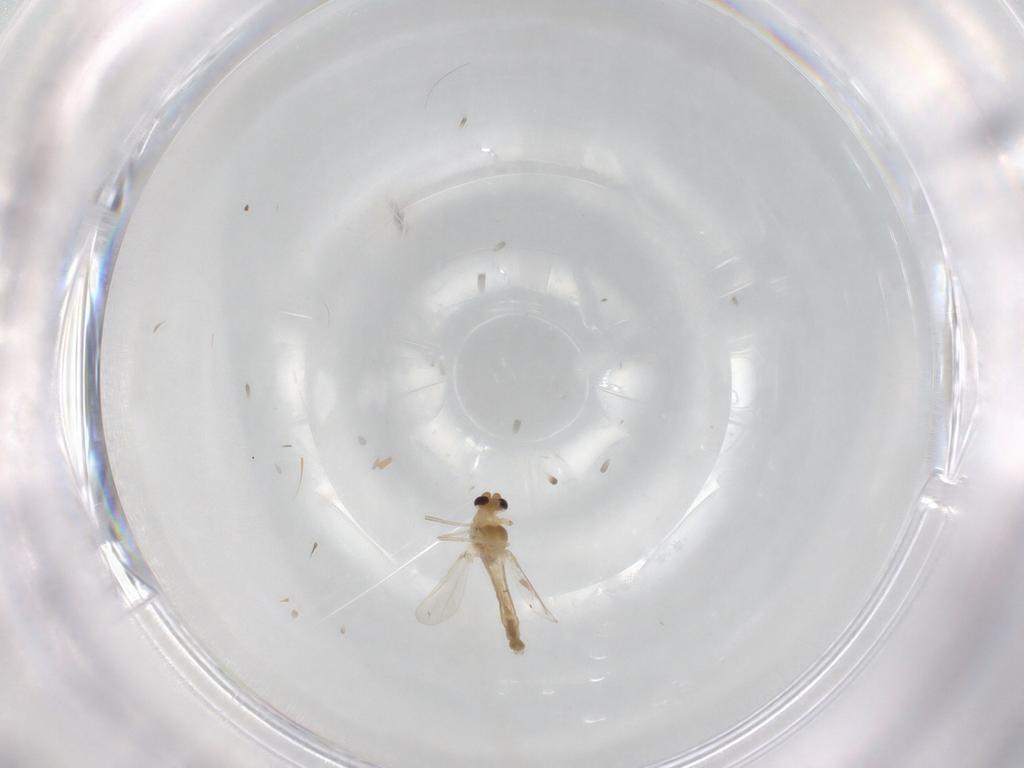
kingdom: Animalia
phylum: Arthropoda
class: Insecta
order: Diptera
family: Chironomidae
